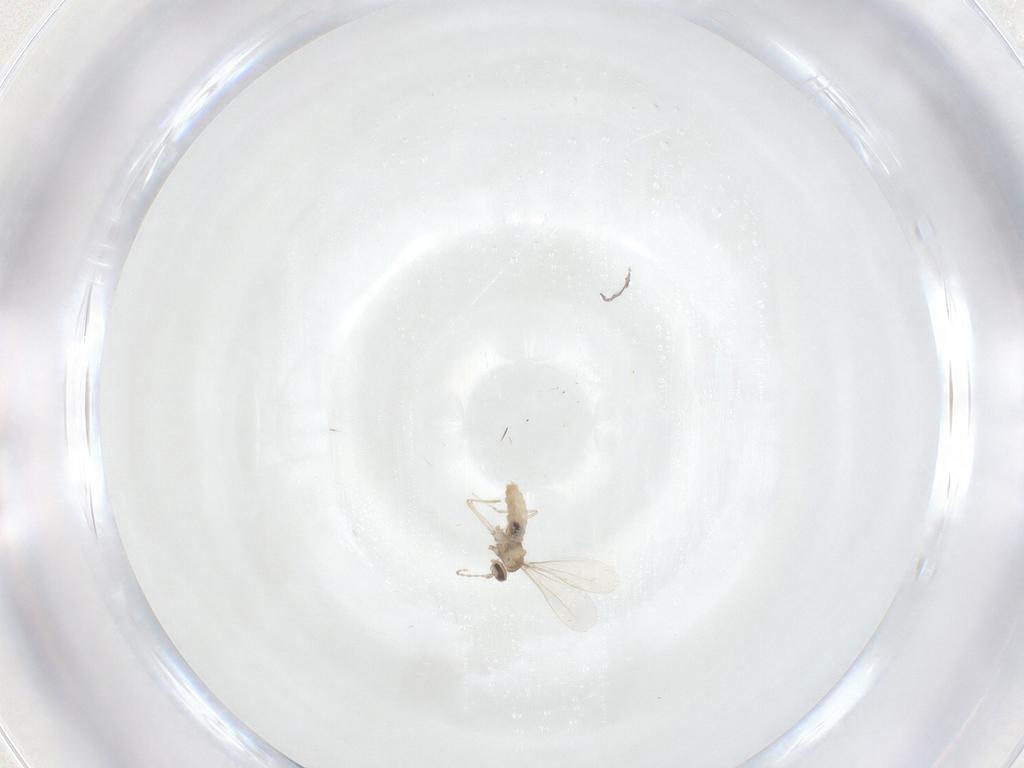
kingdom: Animalia
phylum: Arthropoda
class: Insecta
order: Diptera
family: Cecidomyiidae
